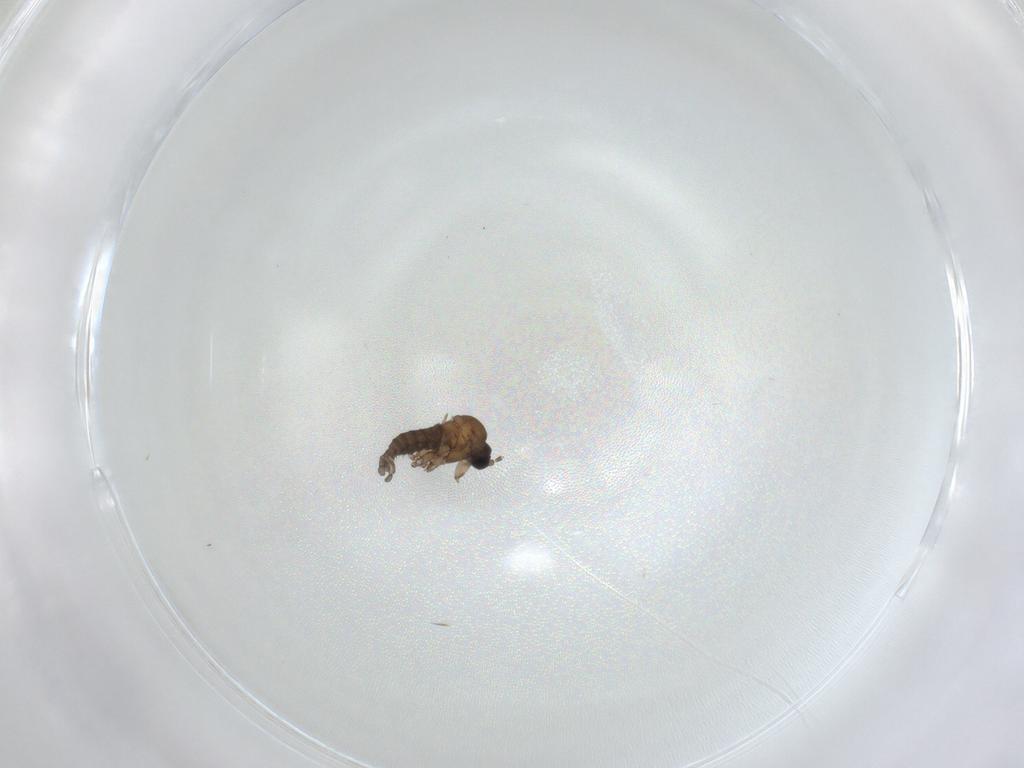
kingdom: Animalia
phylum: Arthropoda
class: Insecta
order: Diptera
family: Sciaridae
